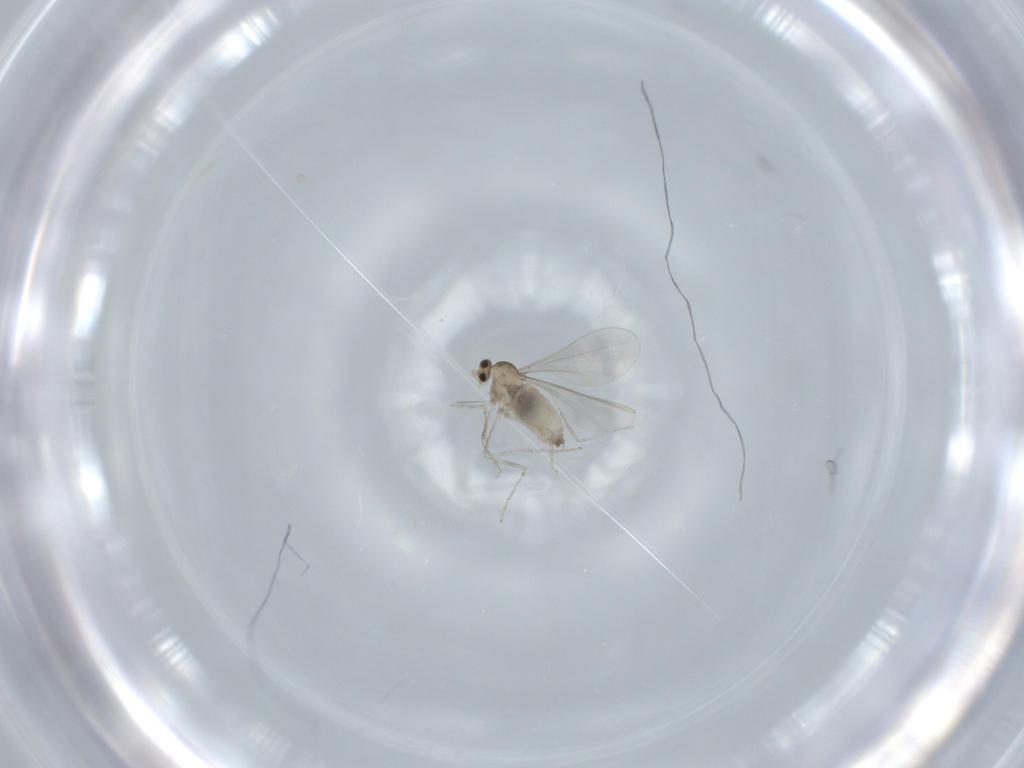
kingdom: Animalia
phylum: Arthropoda
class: Insecta
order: Diptera
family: Cecidomyiidae
